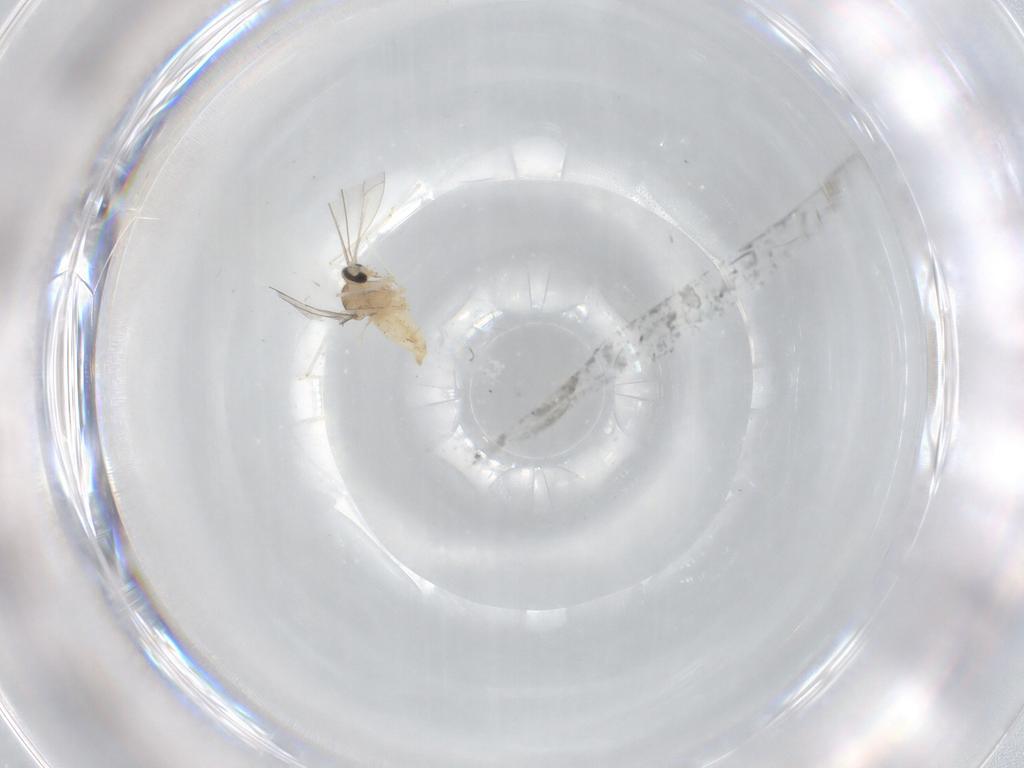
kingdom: Animalia
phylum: Arthropoda
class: Insecta
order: Diptera
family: Cecidomyiidae
